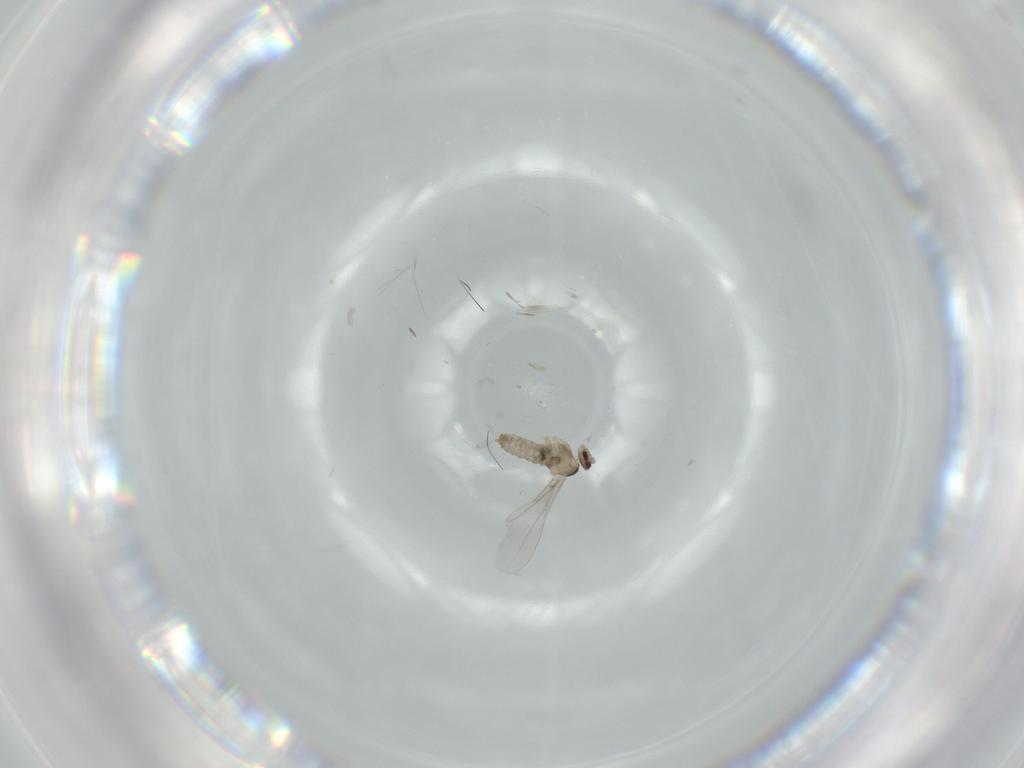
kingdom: Animalia
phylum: Arthropoda
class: Insecta
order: Diptera
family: Cecidomyiidae
